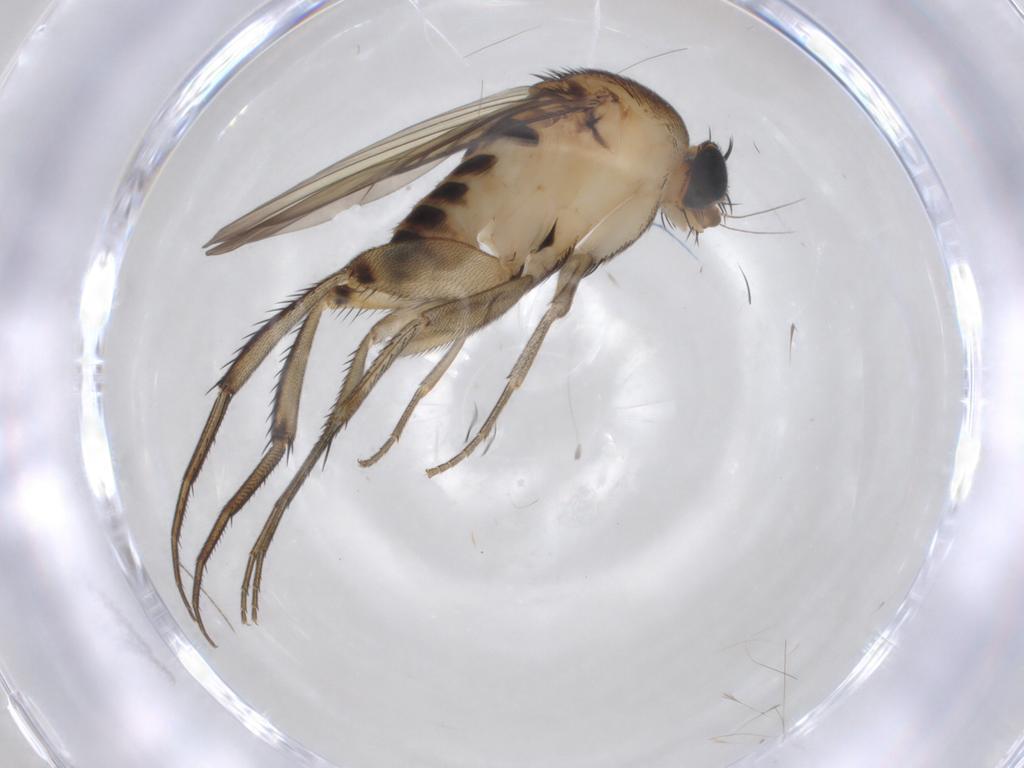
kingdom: Animalia
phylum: Arthropoda
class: Insecta
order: Diptera
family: Phoridae
